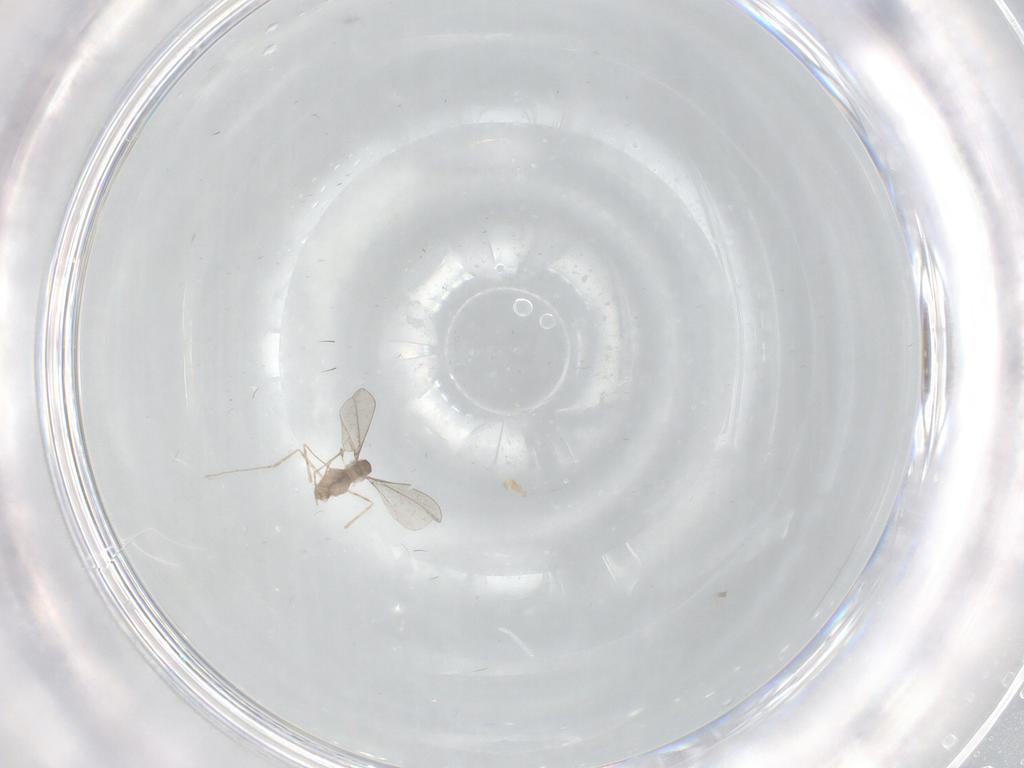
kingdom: Animalia
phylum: Arthropoda
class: Insecta
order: Diptera
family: Cecidomyiidae
